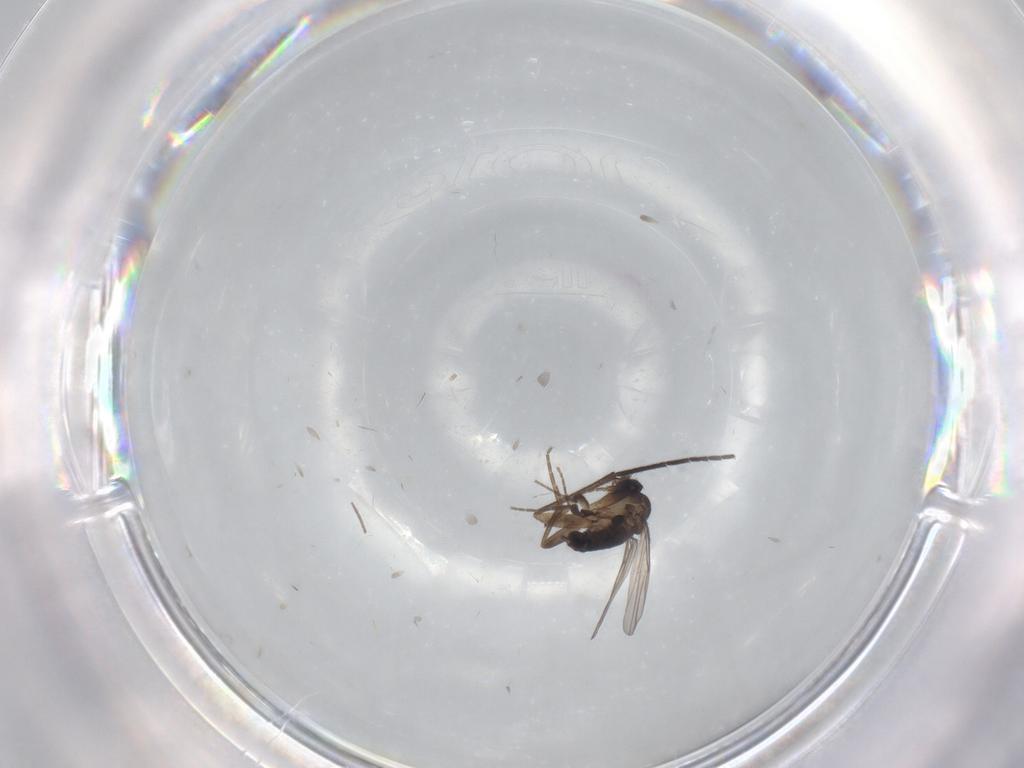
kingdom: Animalia
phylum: Arthropoda
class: Insecta
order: Diptera
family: Phoridae
